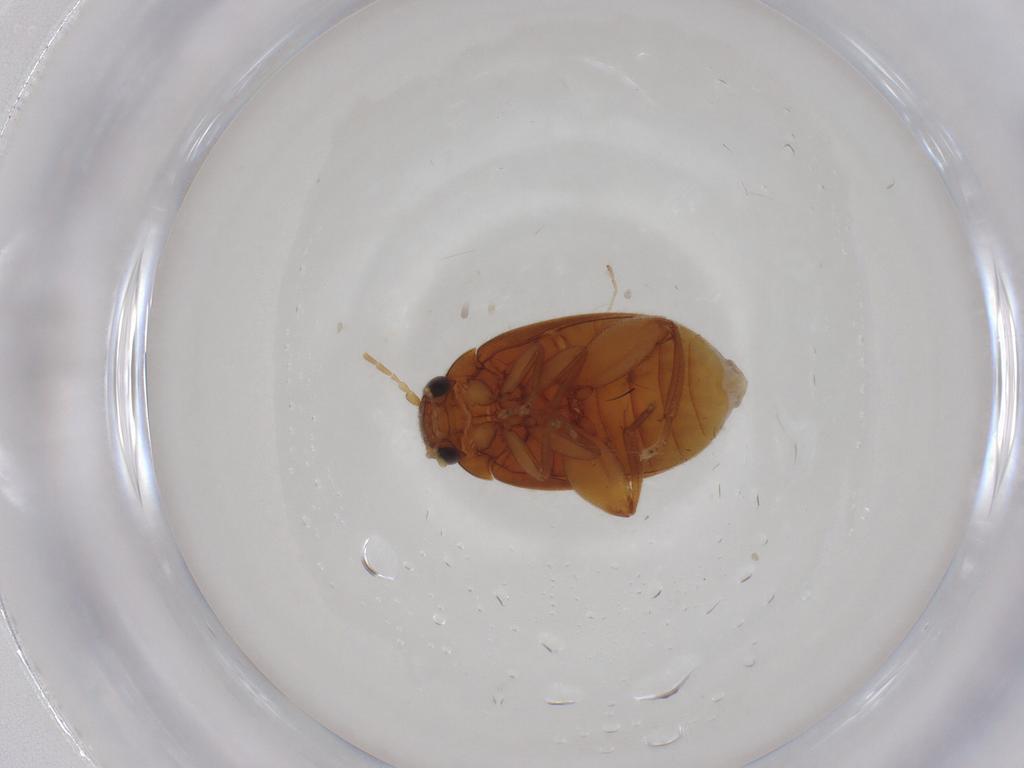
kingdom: Animalia
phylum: Arthropoda
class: Insecta
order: Coleoptera
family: Scirtidae
